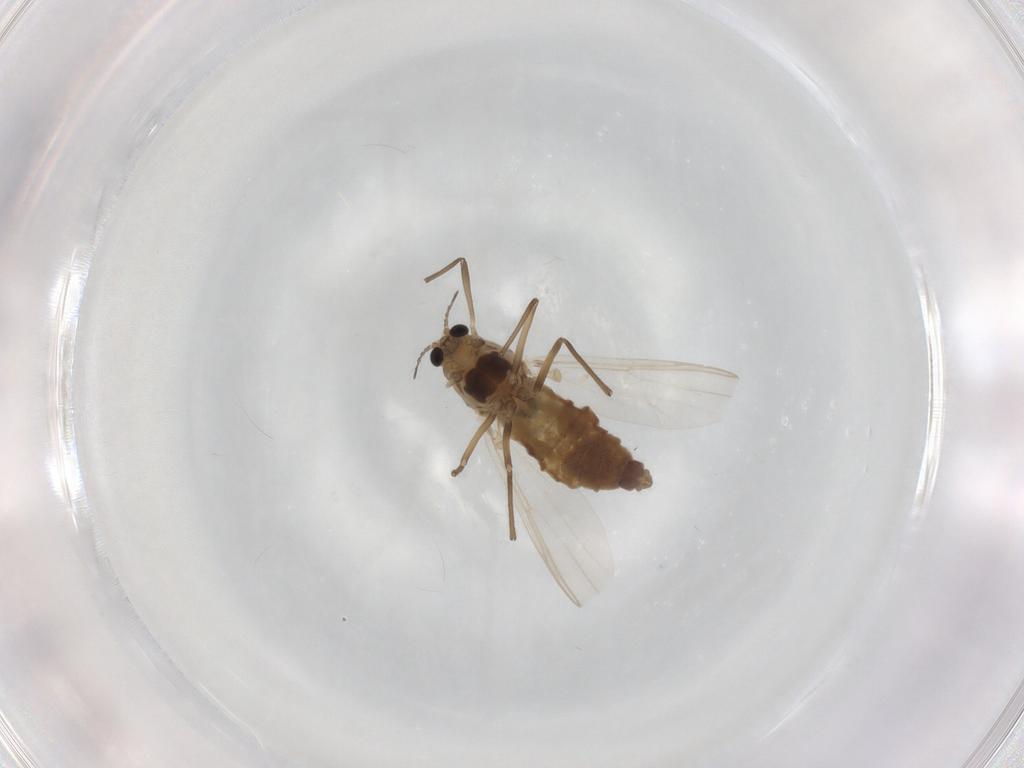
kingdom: Animalia
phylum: Arthropoda
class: Insecta
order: Diptera
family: Chironomidae
